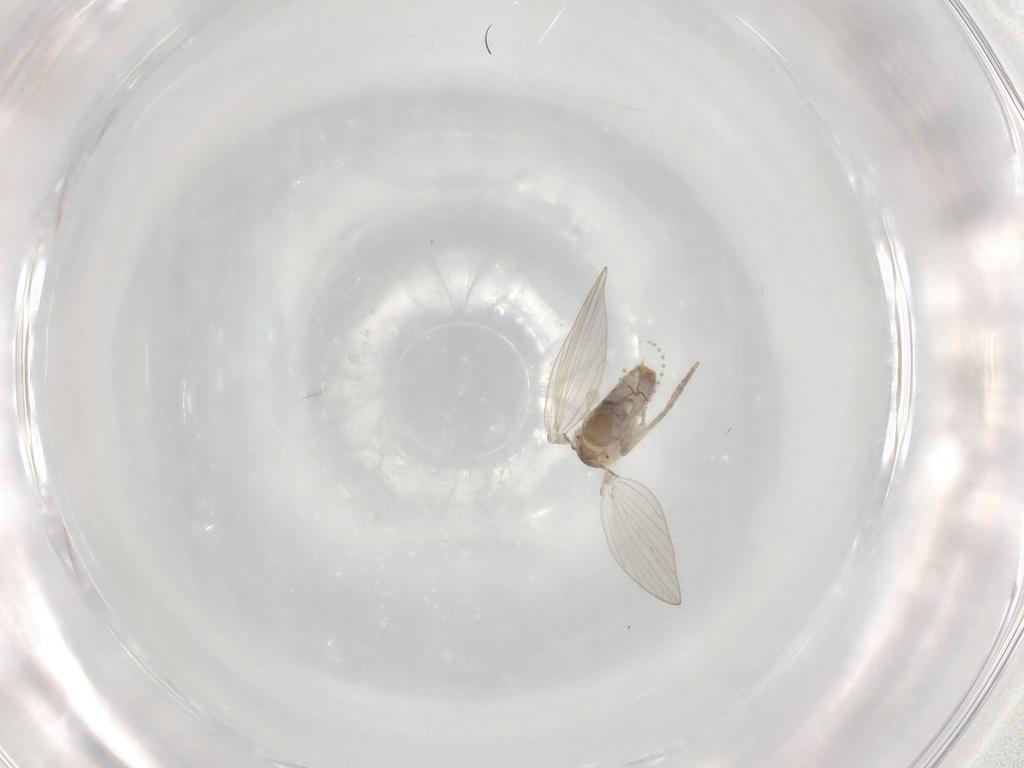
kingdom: Animalia
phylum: Arthropoda
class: Insecta
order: Diptera
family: Psychodidae
